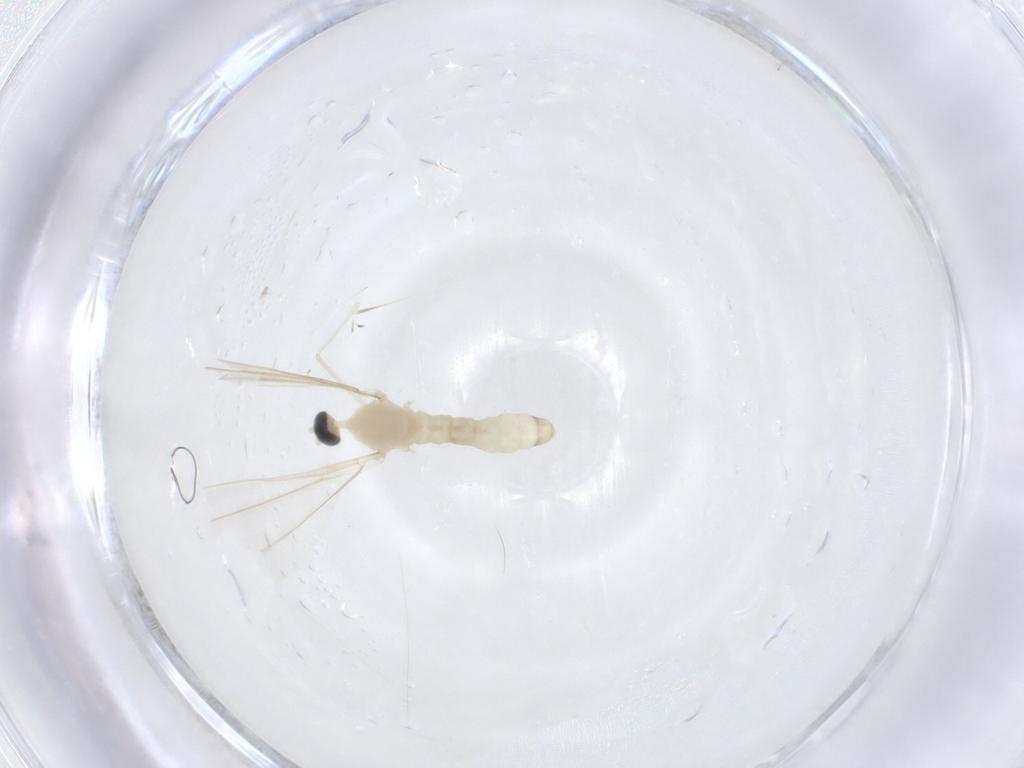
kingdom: Animalia
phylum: Arthropoda
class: Insecta
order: Diptera
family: Cecidomyiidae
